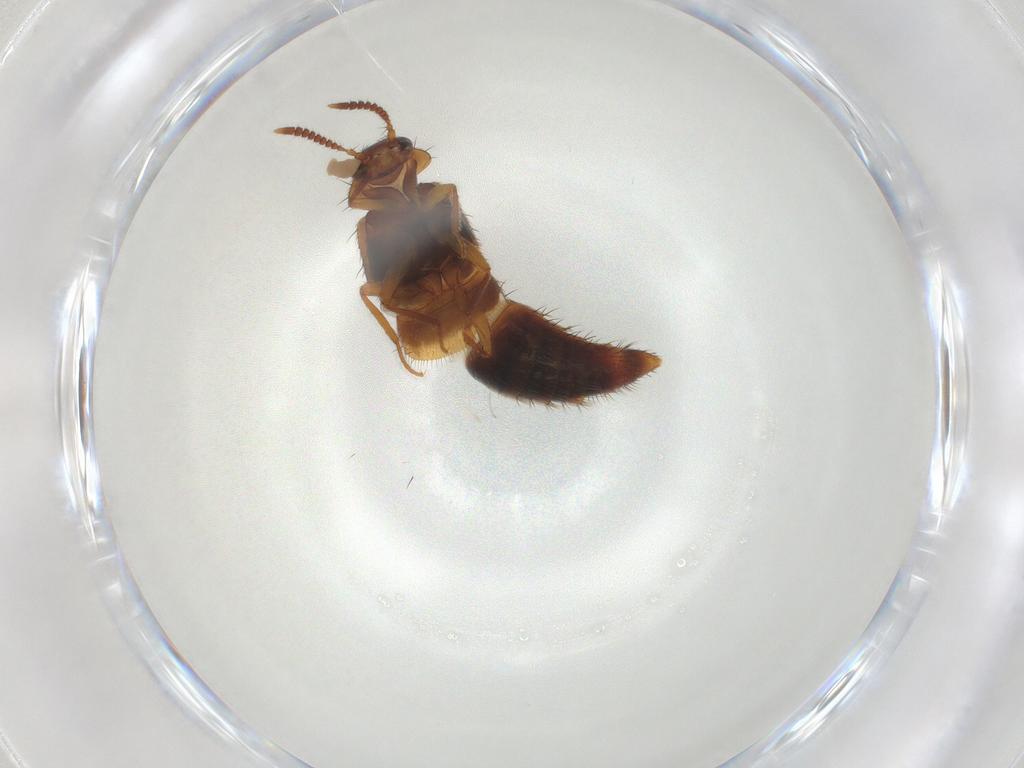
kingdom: Animalia
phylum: Arthropoda
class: Insecta
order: Coleoptera
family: Staphylinidae
